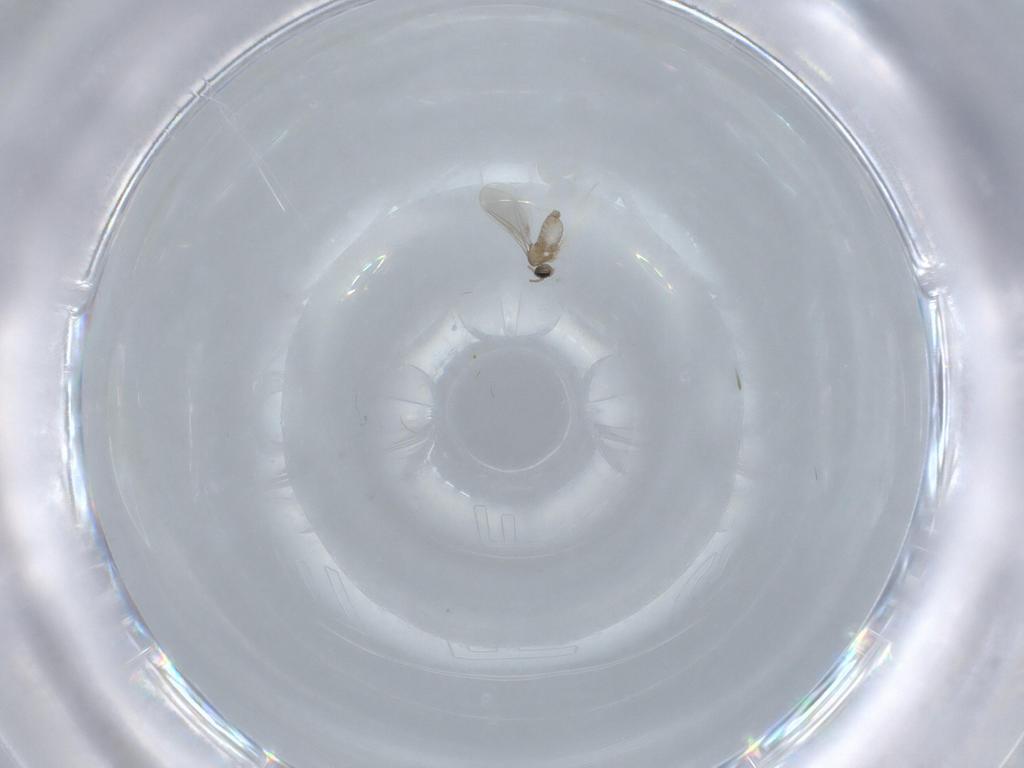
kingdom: Animalia
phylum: Arthropoda
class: Insecta
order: Diptera
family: Cecidomyiidae
